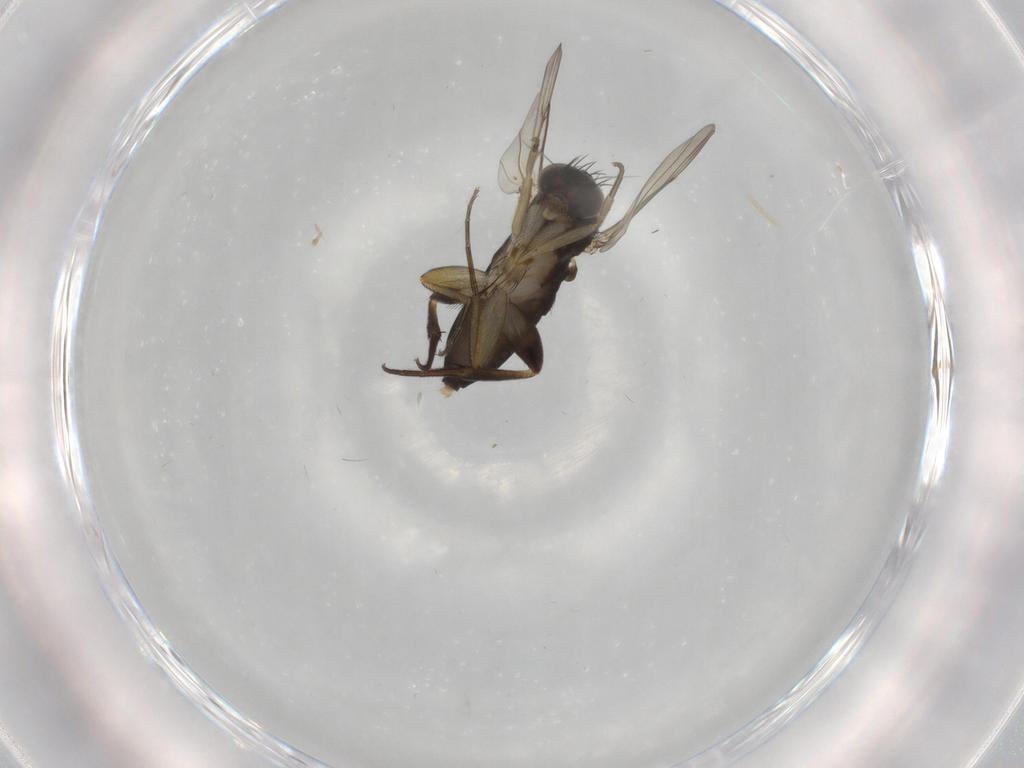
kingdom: Animalia
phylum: Arthropoda
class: Insecta
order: Diptera
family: Phoridae
